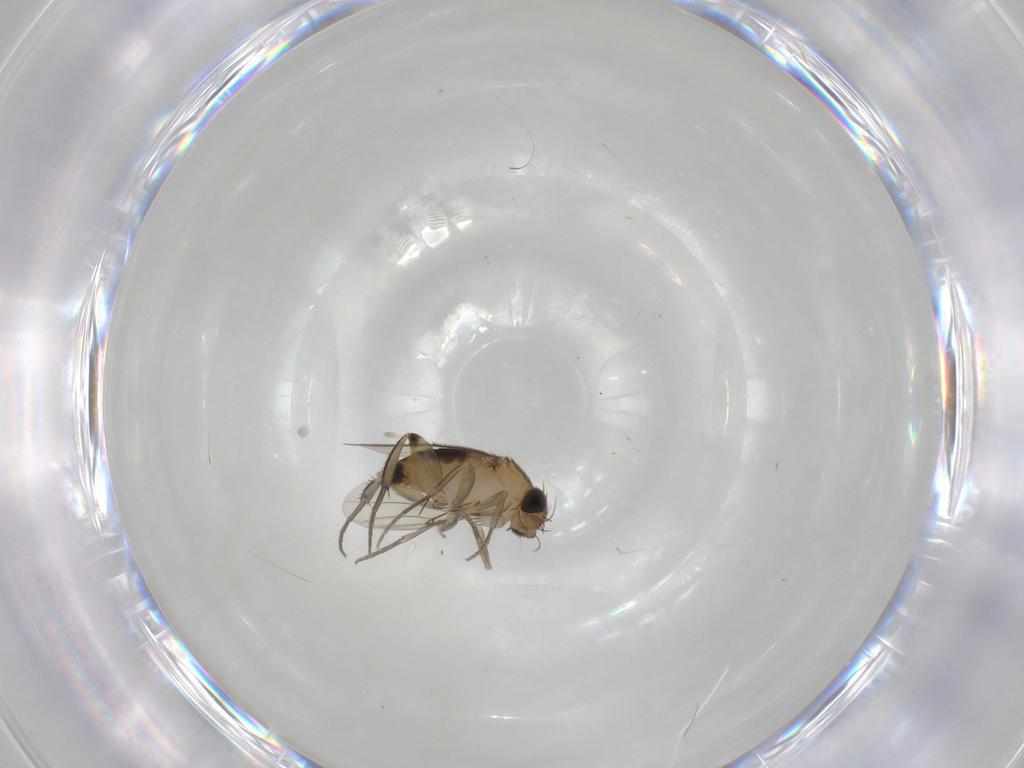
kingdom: Animalia
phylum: Arthropoda
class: Insecta
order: Diptera
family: Phoridae
